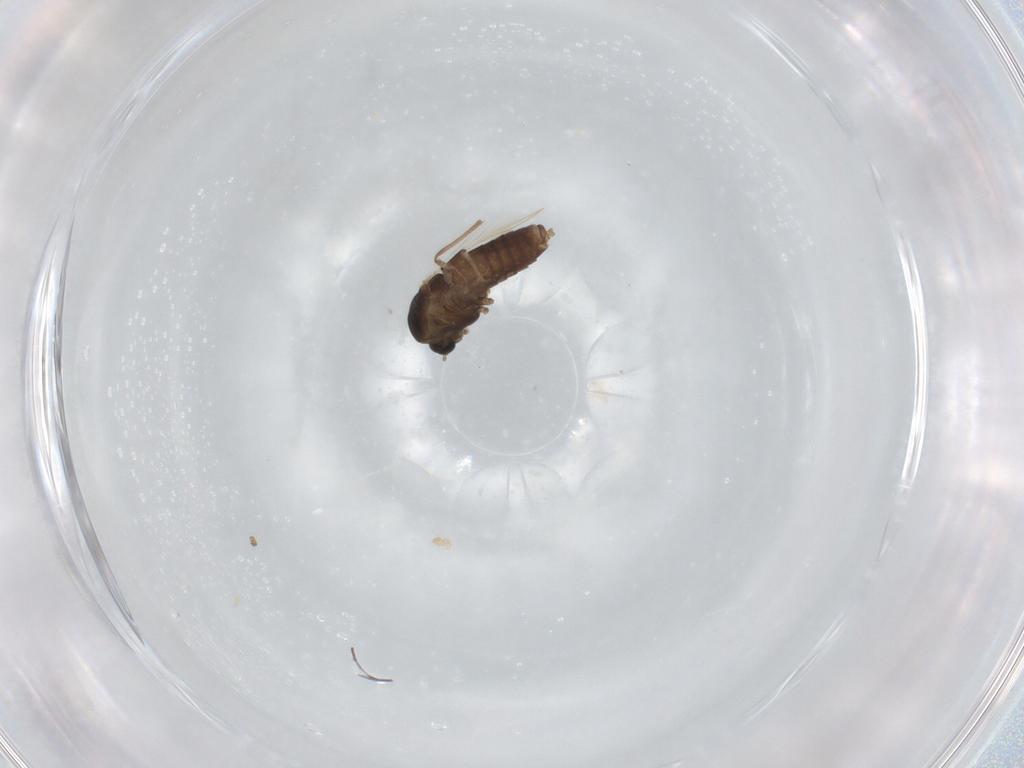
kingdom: Animalia
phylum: Arthropoda
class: Insecta
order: Diptera
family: Chironomidae
